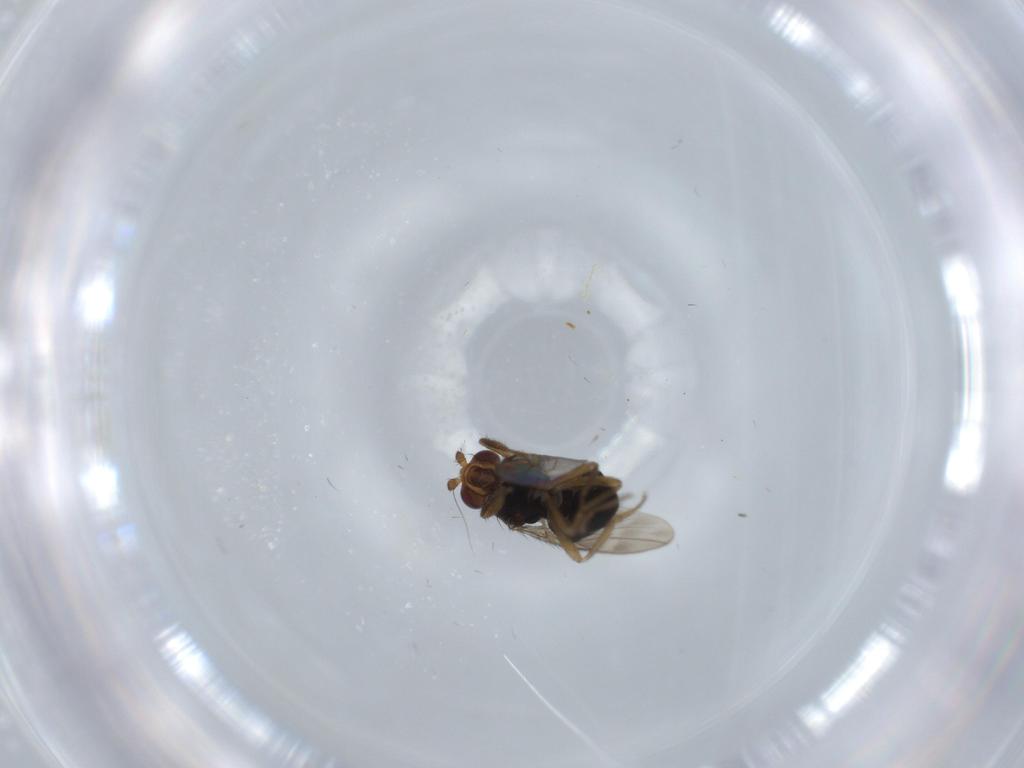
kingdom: Animalia
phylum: Arthropoda
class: Insecta
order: Diptera
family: Sphaeroceridae
